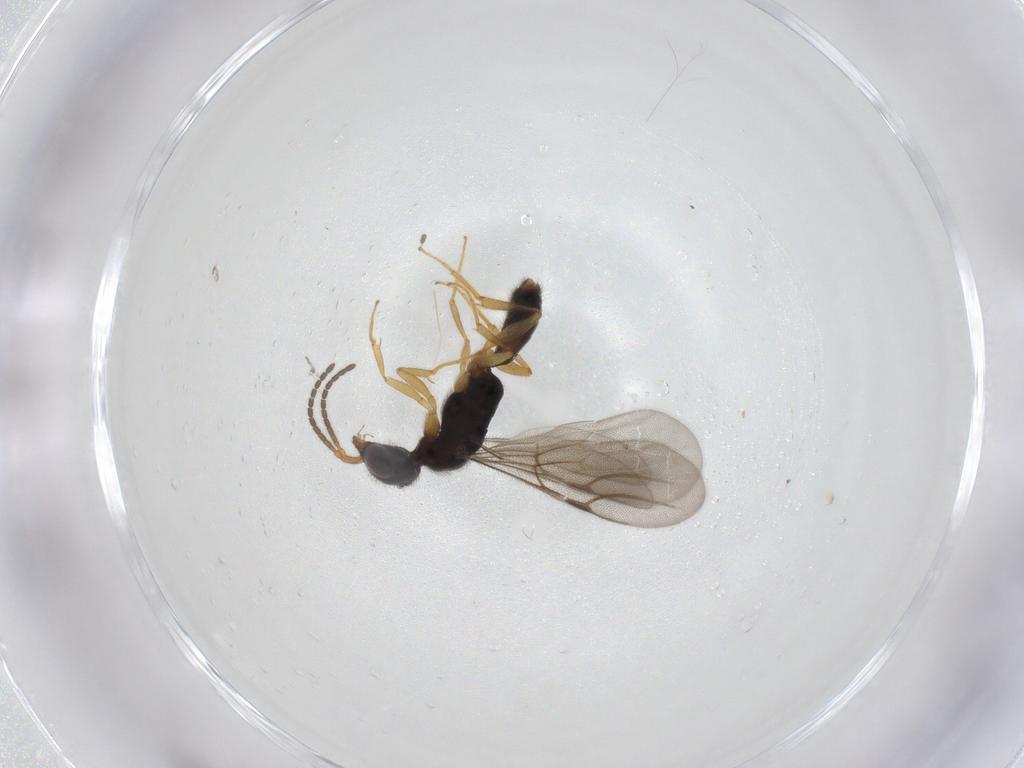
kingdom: Animalia
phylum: Arthropoda
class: Insecta
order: Hymenoptera
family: Bethylidae
